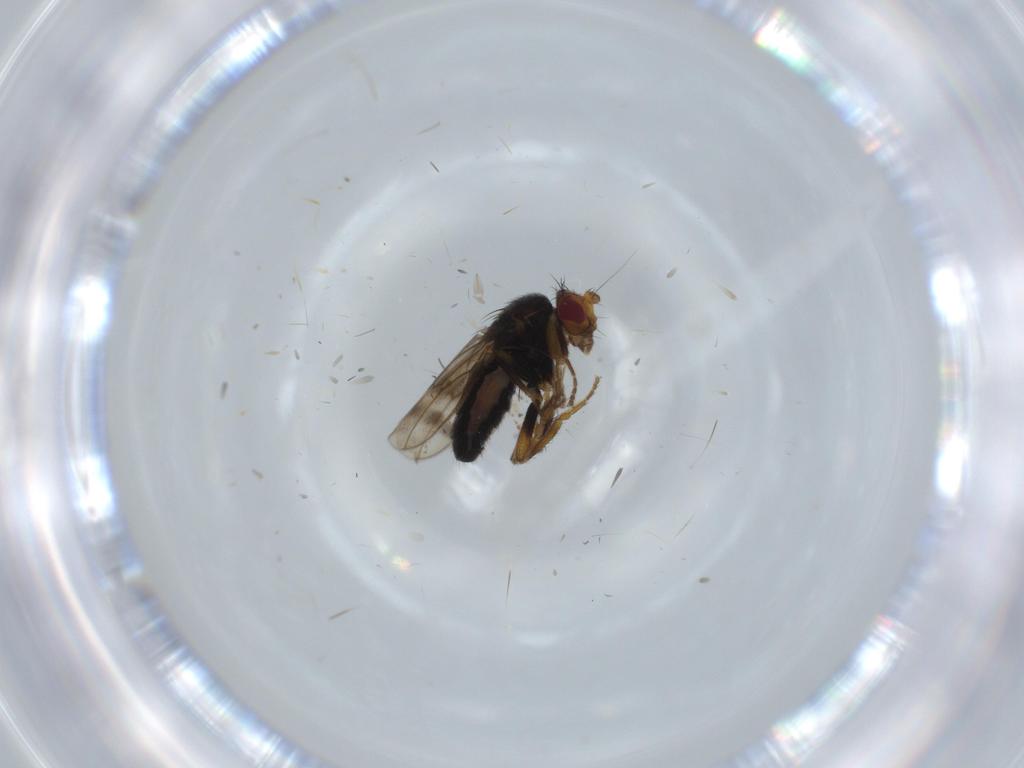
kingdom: Animalia
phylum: Arthropoda
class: Insecta
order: Diptera
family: Sphaeroceridae
